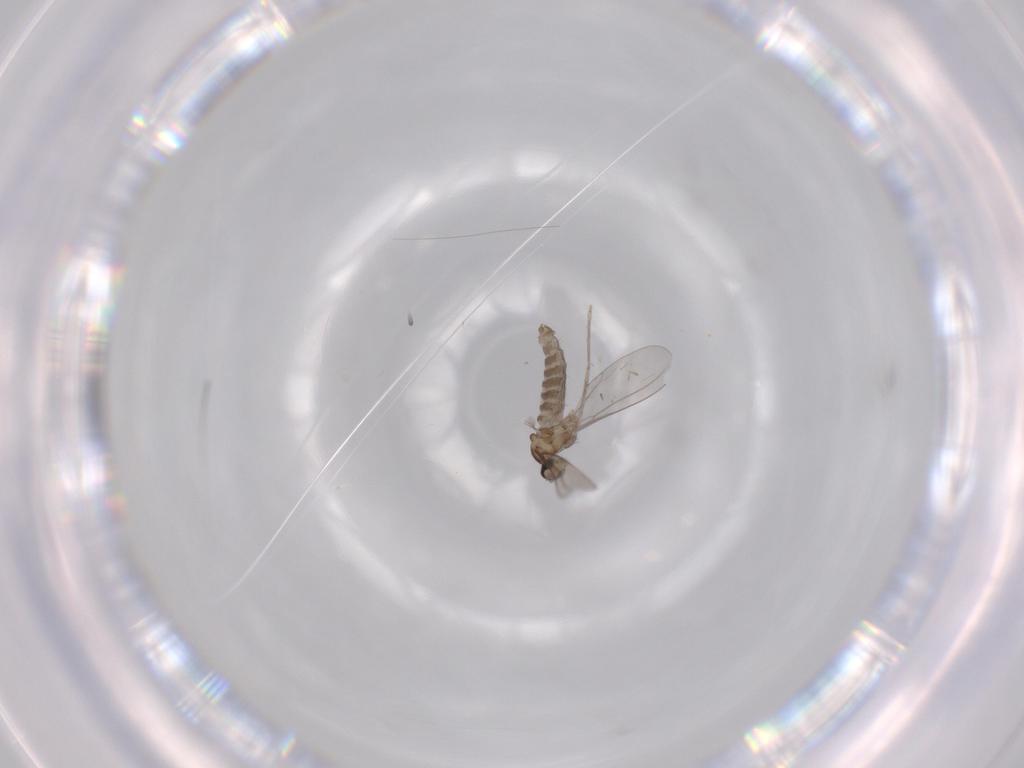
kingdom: Animalia
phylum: Arthropoda
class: Insecta
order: Diptera
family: Cecidomyiidae
